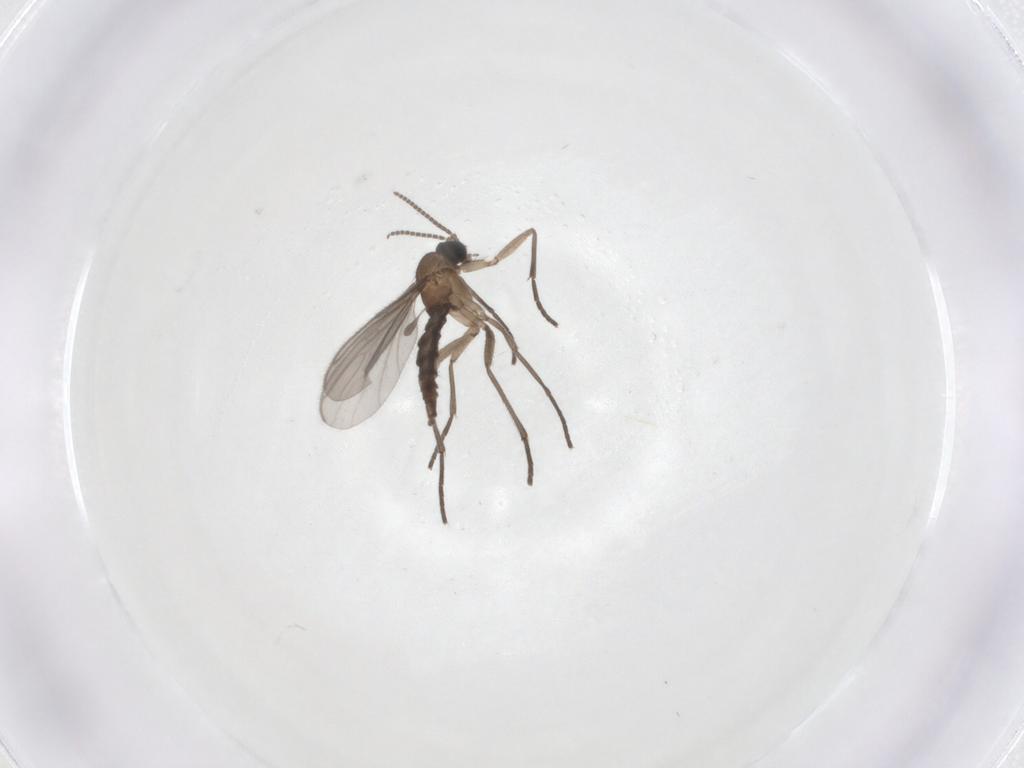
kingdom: Animalia
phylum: Arthropoda
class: Insecta
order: Diptera
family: Sciaridae
